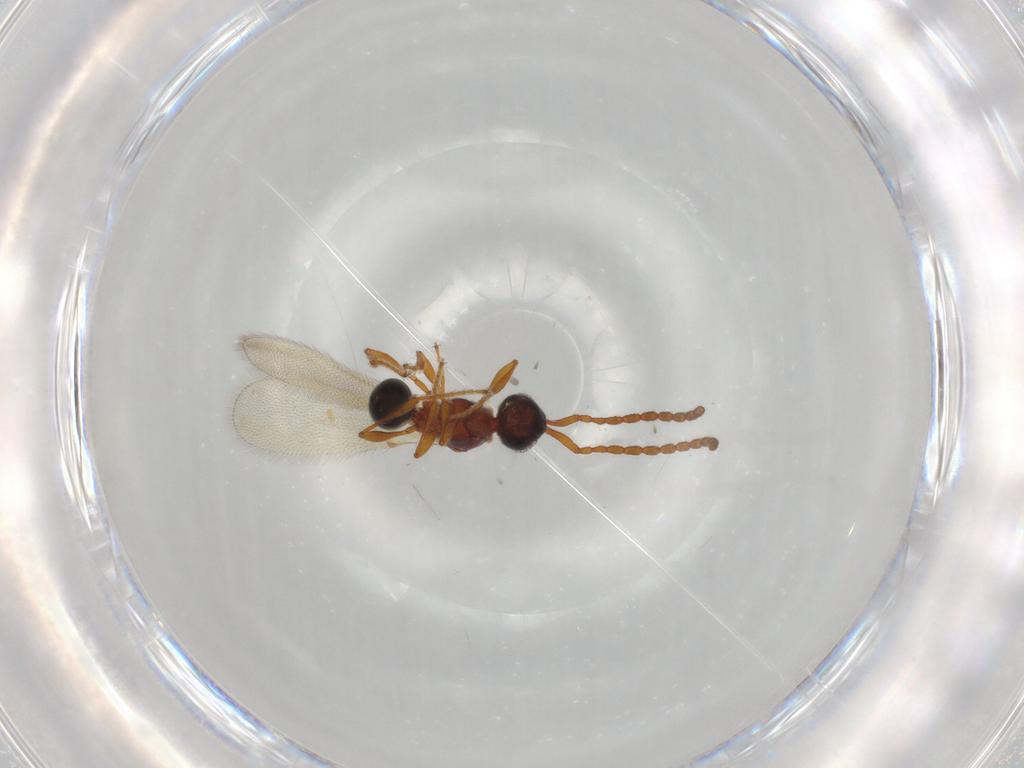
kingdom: Animalia
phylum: Arthropoda
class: Insecta
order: Hymenoptera
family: Diapriidae
